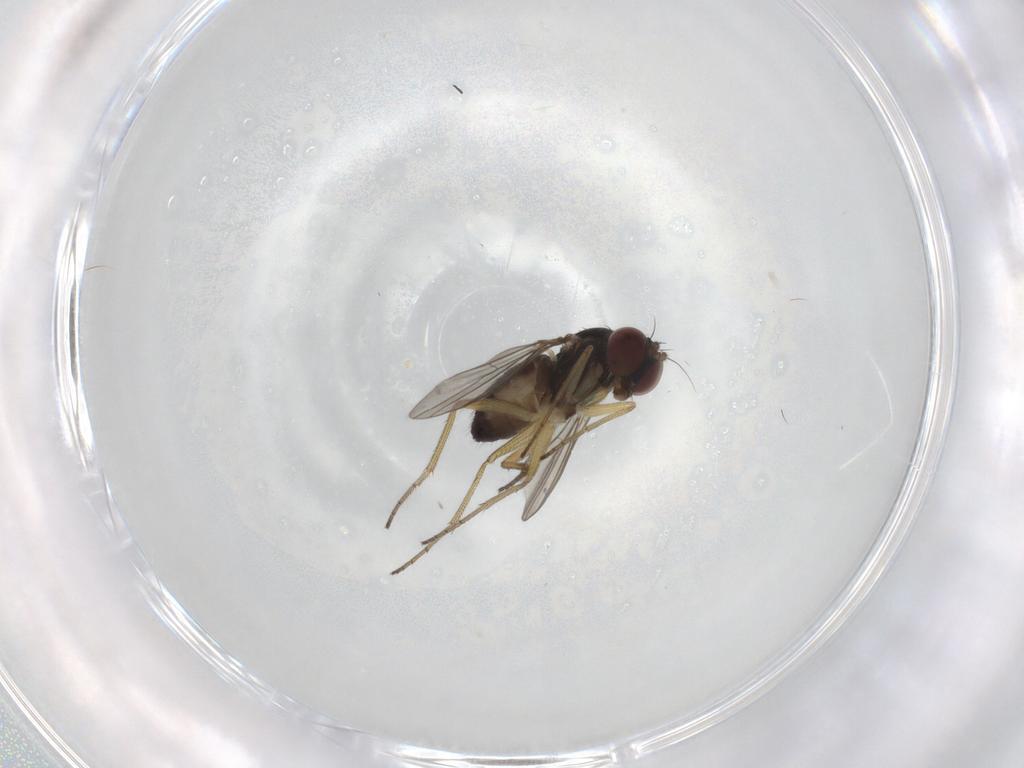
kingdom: Animalia
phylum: Arthropoda
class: Insecta
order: Diptera
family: Dolichopodidae
